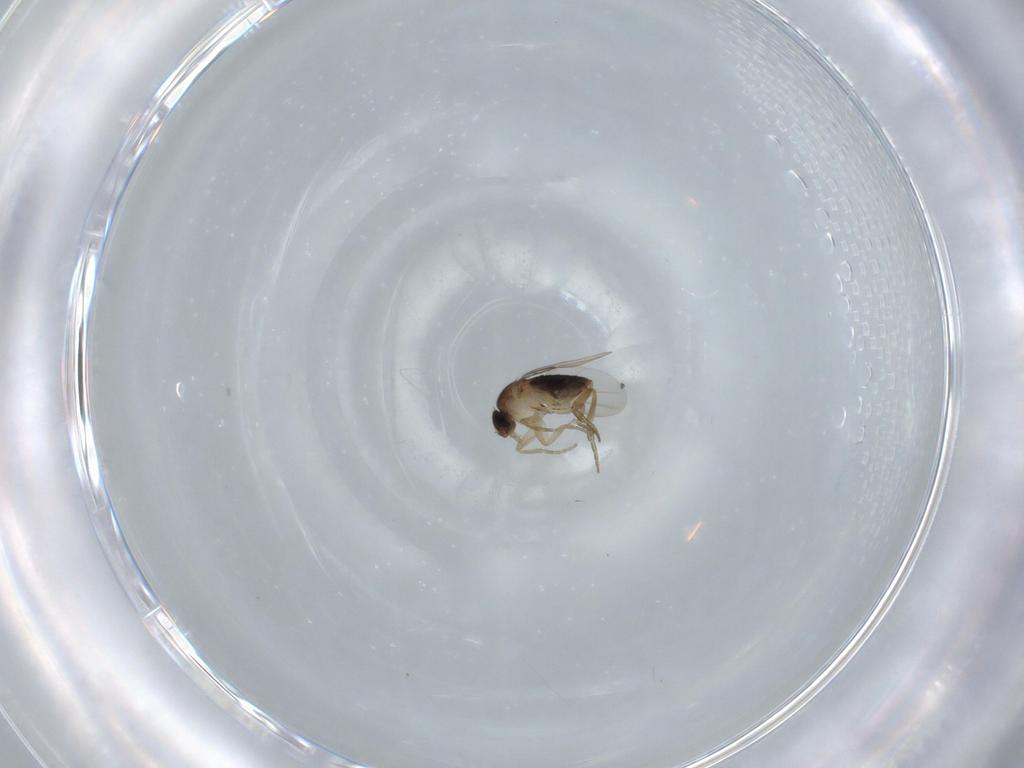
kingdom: Animalia
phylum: Arthropoda
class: Insecta
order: Diptera
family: Phoridae
